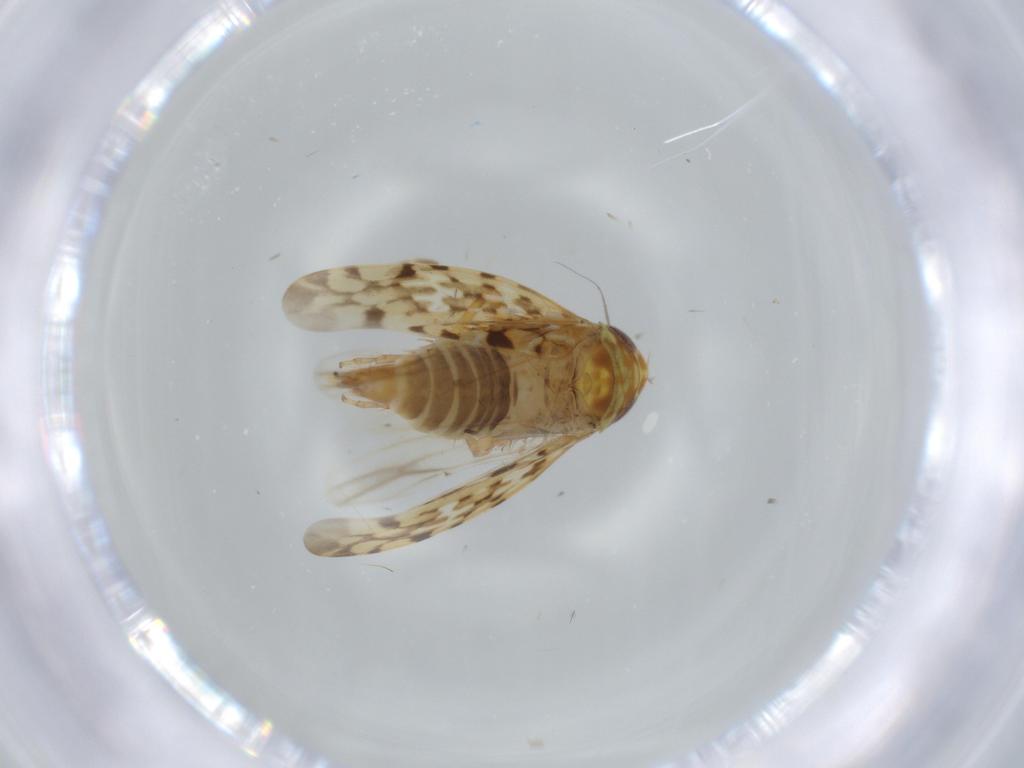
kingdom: Animalia
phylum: Arthropoda
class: Insecta
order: Hemiptera
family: Cicadellidae
